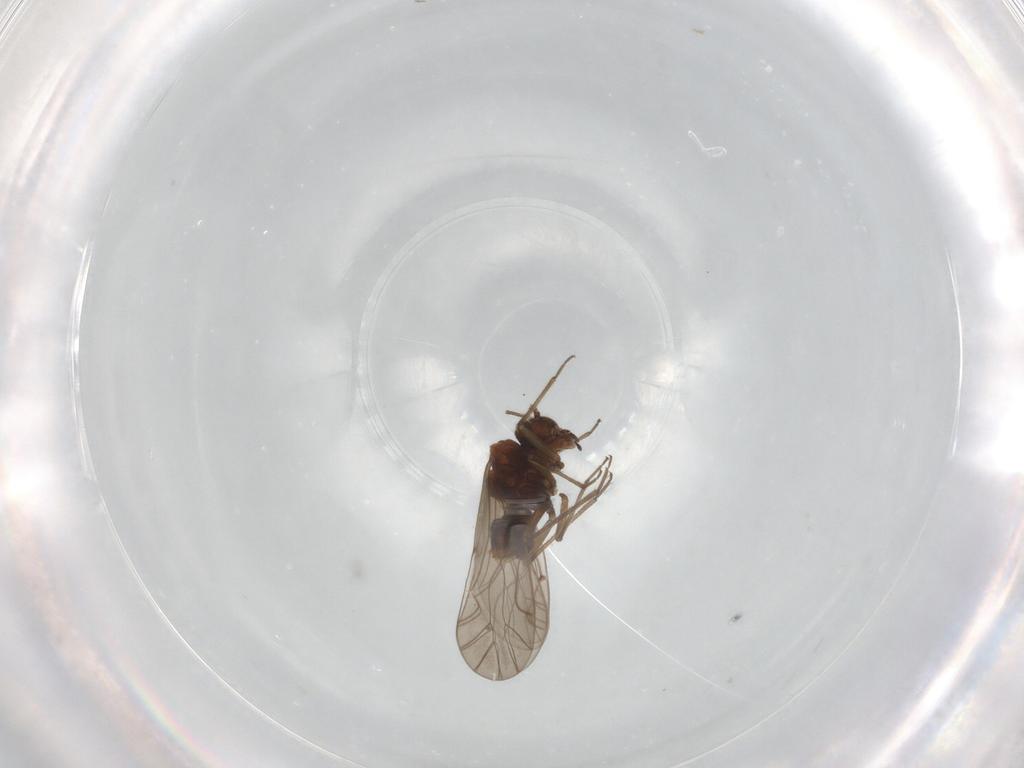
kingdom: Animalia
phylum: Arthropoda
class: Insecta
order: Psocodea
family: Lachesillidae
